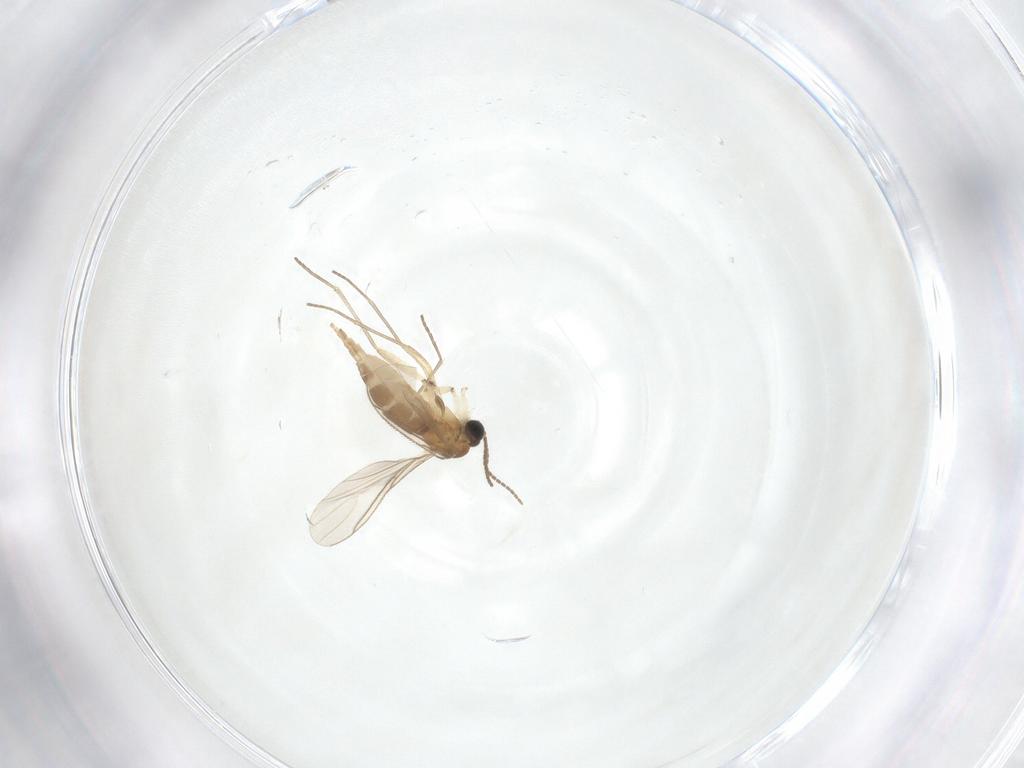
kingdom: Animalia
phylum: Arthropoda
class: Insecta
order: Diptera
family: Sciaridae
